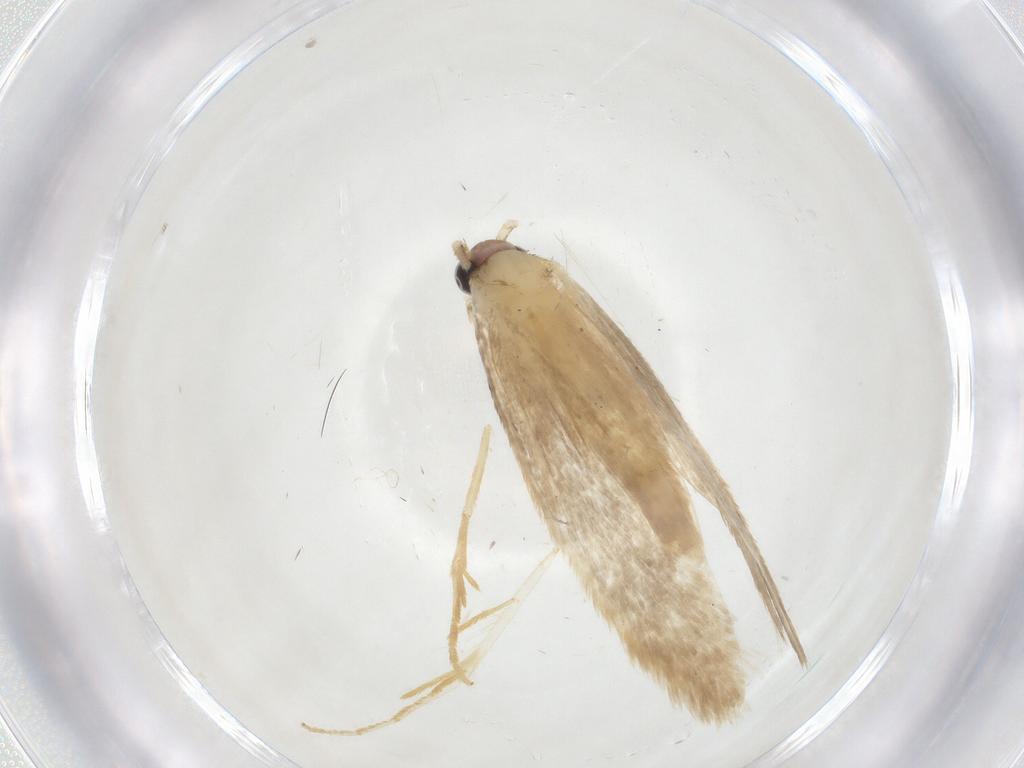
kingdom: Animalia
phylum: Arthropoda
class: Insecta
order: Lepidoptera
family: Tineidae
